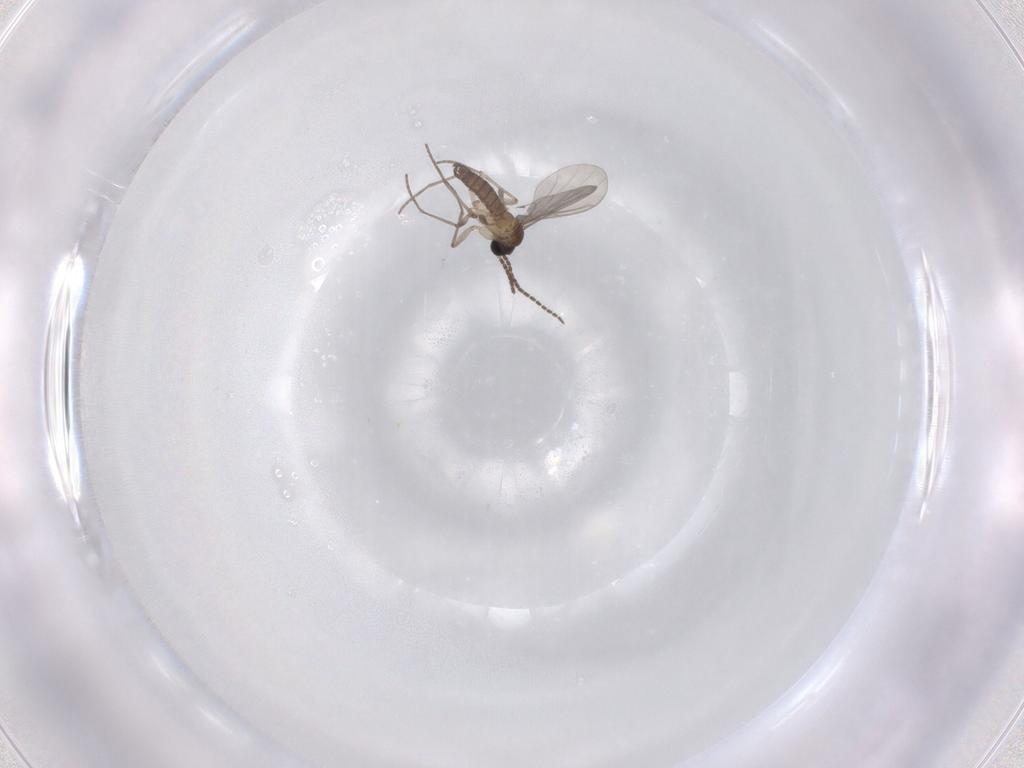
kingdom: Animalia
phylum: Arthropoda
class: Insecta
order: Diptera
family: Sciaridae
